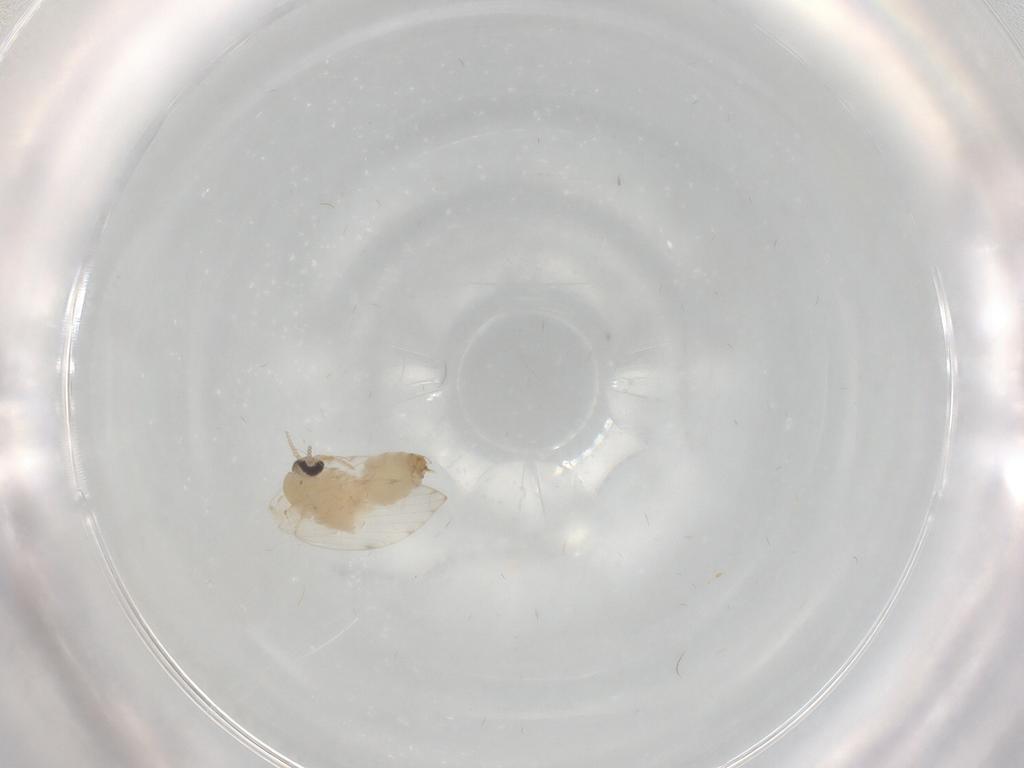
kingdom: Animalia
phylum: Arthropoda
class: Insecta
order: Diptera
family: Psychodidae
